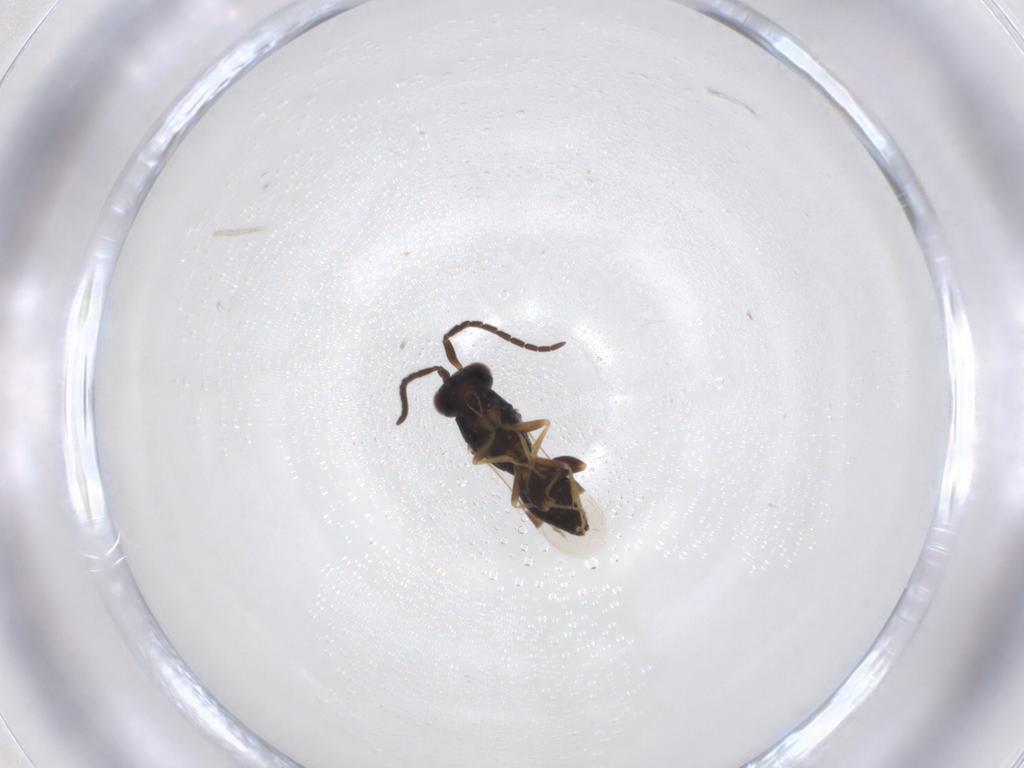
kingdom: Animalia
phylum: Arthropoda
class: Insecta
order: Hymenoptera
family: Megaspilidae
